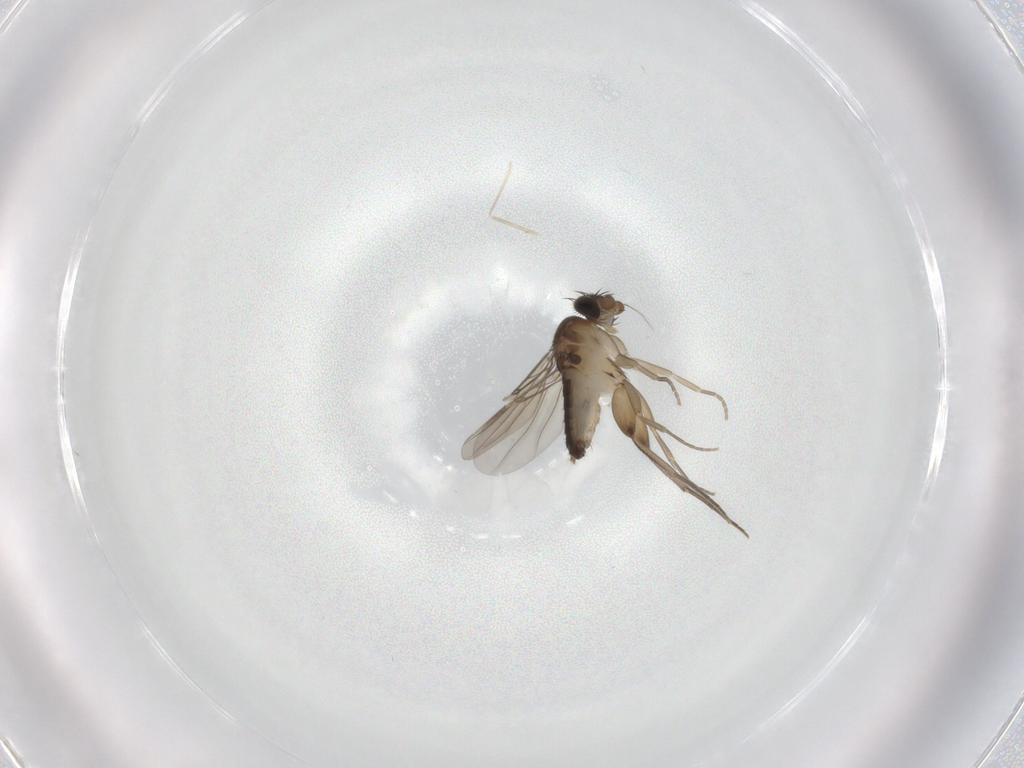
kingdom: Animalia
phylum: Arthropoda
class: Insecta
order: Diptera
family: Phoridae
